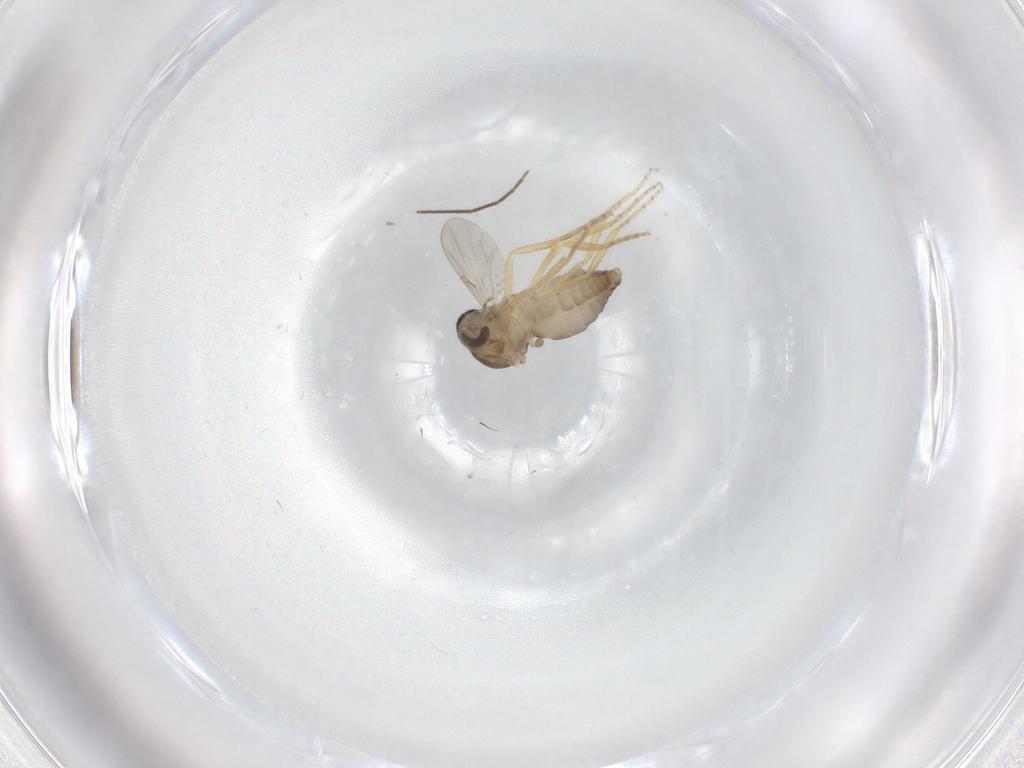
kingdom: Animalia
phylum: Arthropoda
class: Insecta
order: Diptera
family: Ceratopogonidae
